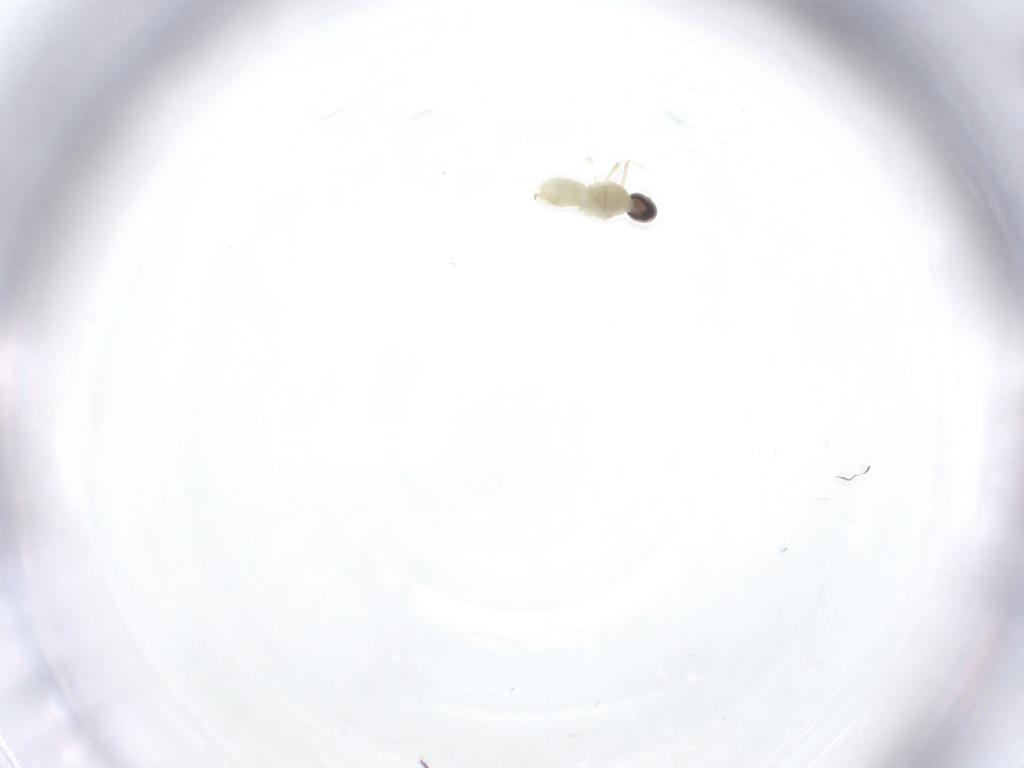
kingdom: Animalia
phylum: Arthropoda
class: Insecta
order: Diptera
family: Cecidomyiidae
